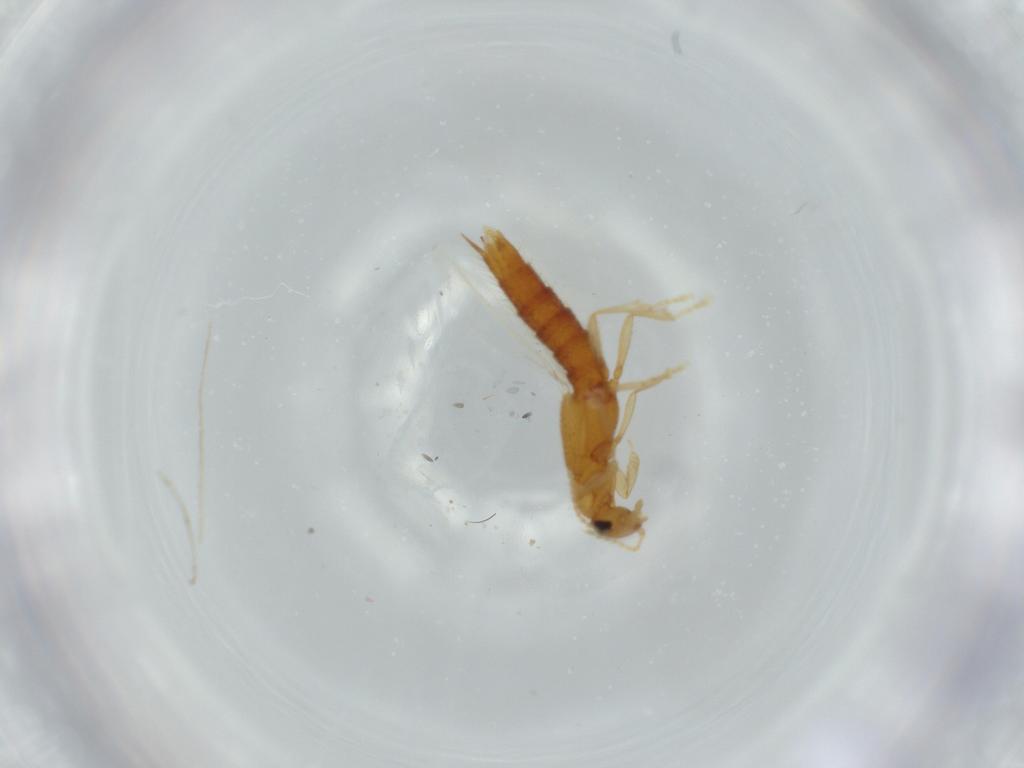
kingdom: Animalia
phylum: Arthropoda
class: Insecta
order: Coleoptera
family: Staphylinidae
